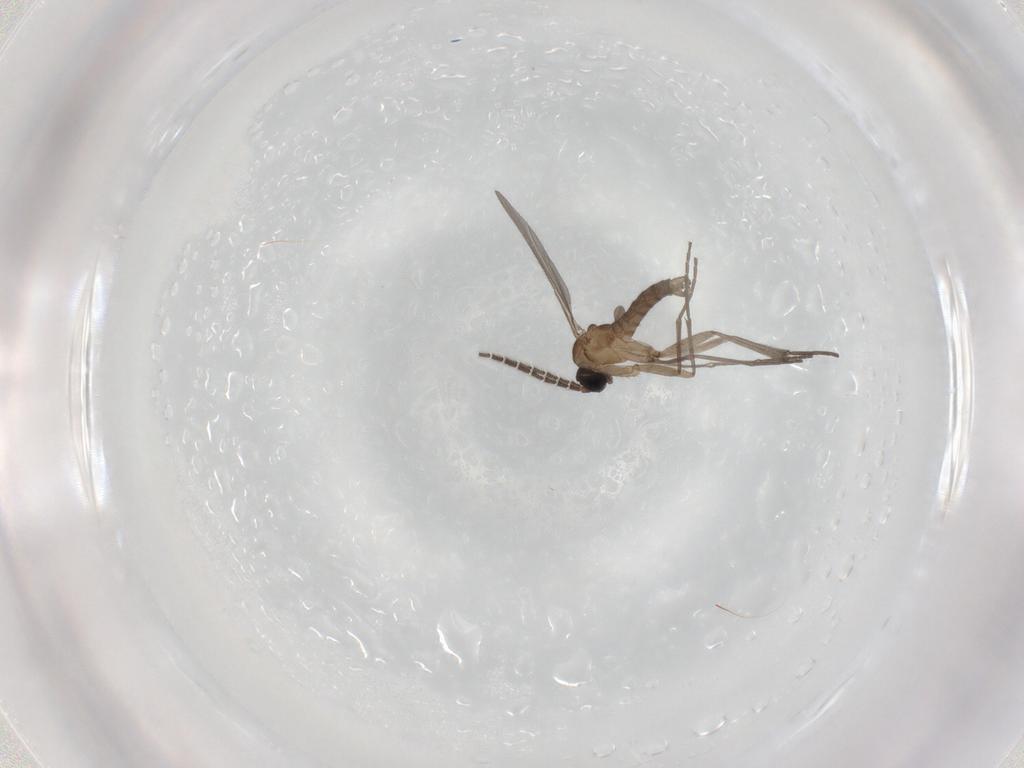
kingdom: Animalia
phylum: Arthropoda
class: Insecta
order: Diptera
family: Sciaridae
